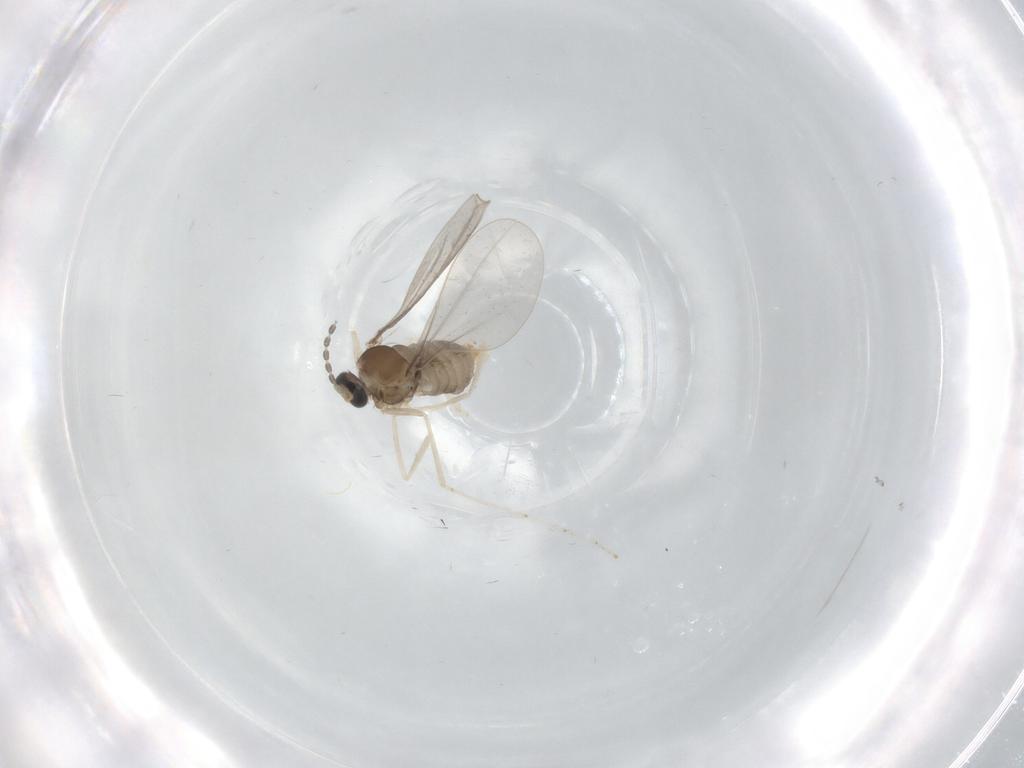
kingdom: Animalia
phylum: Arthropoda
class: Insecta
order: Diptera
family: Cecidomyiidae
